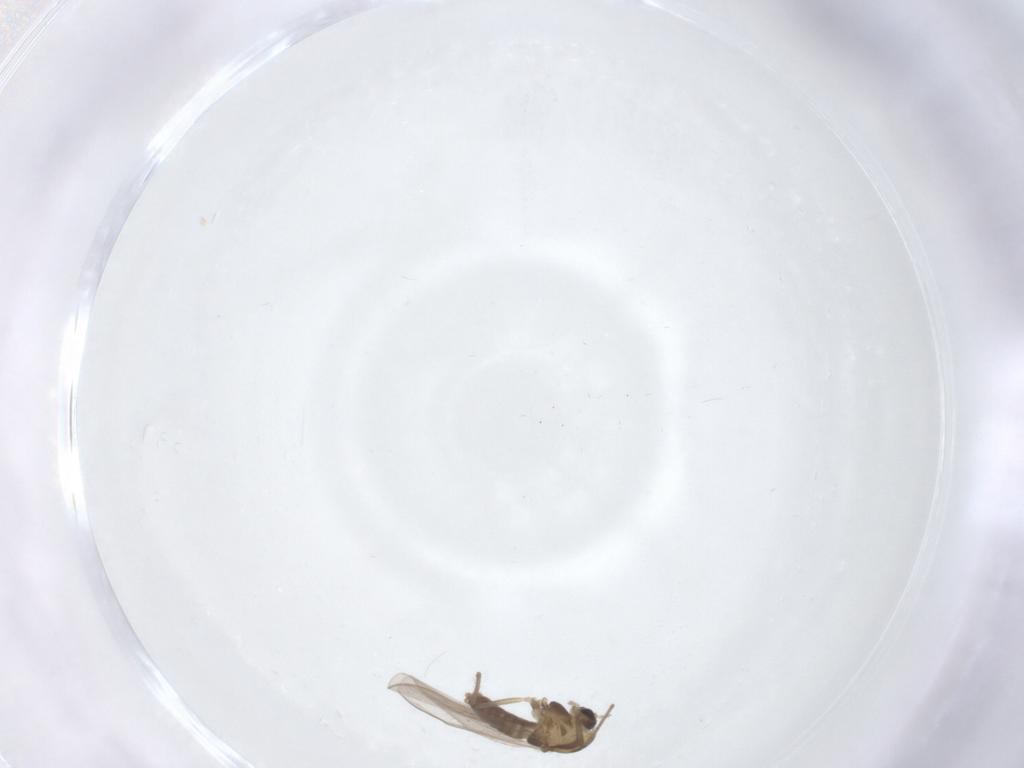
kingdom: Animalia
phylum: Arthropoda
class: Insecta
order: Diptera
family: Chironomidae
